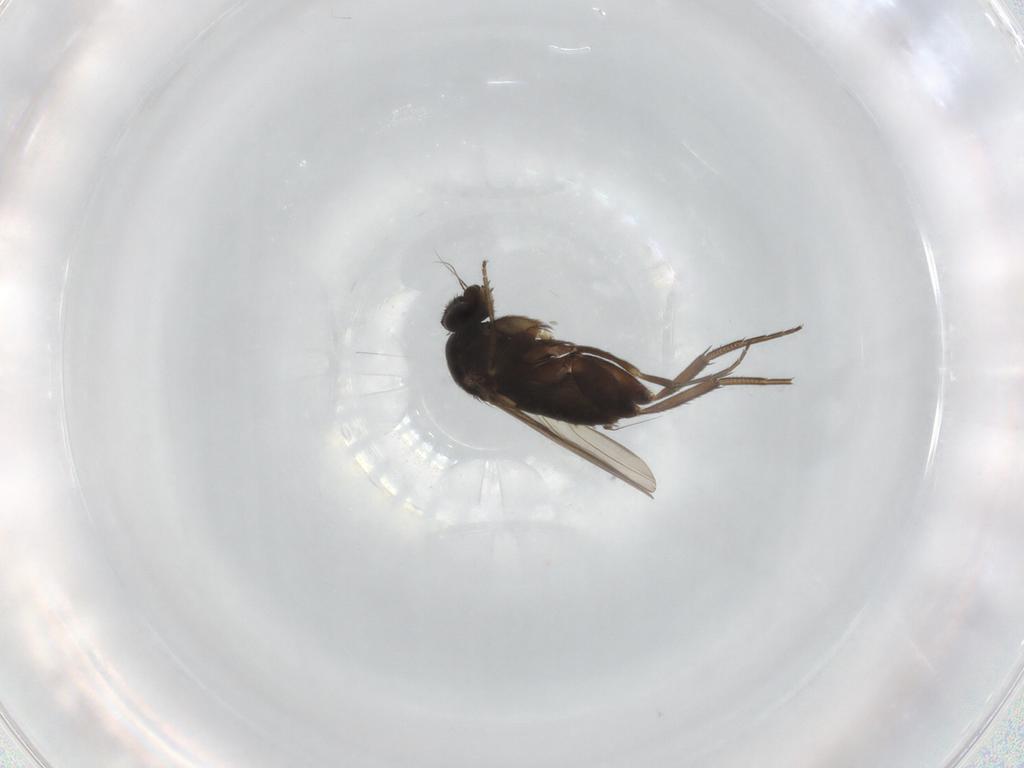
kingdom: Animalia
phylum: Arthropoda
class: Insecta
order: Diptera
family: Phoridae
